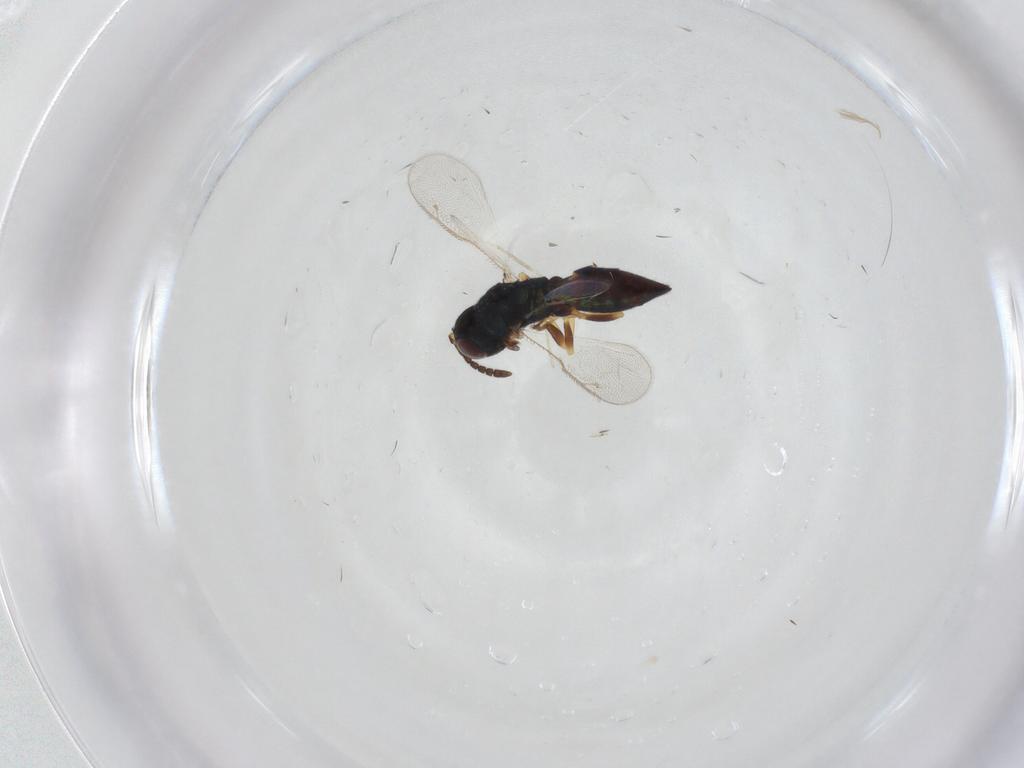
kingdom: Animalia
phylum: Arthropoda
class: Insecta
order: Hymenoptera
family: Pteromalidae
